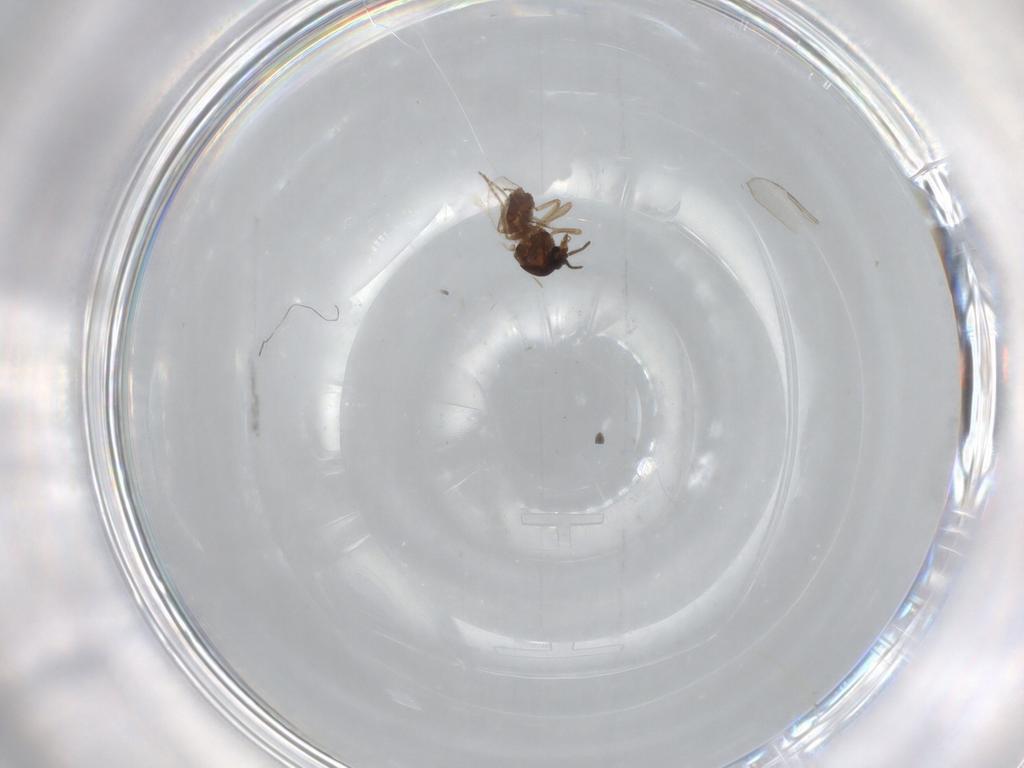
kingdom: Animalia
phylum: Arthropoda
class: Insecta
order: Diptera
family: Ceratopogonidae
